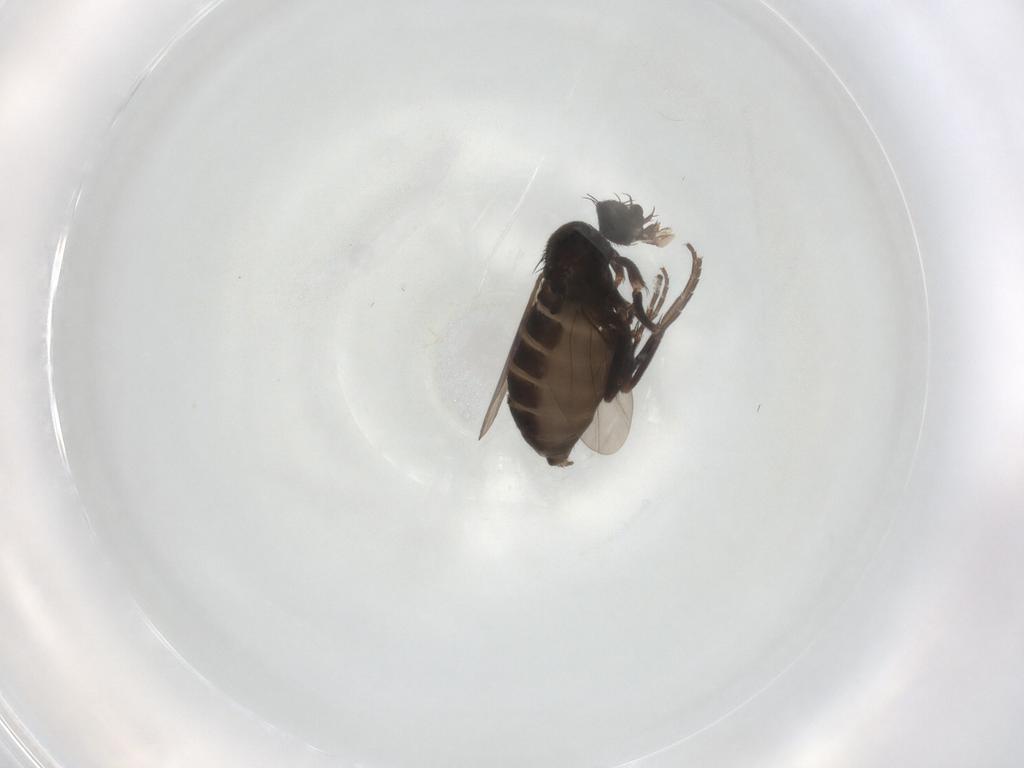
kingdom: Animalia
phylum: Arthropoda
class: Insecta
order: Diptera
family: Phoridae
